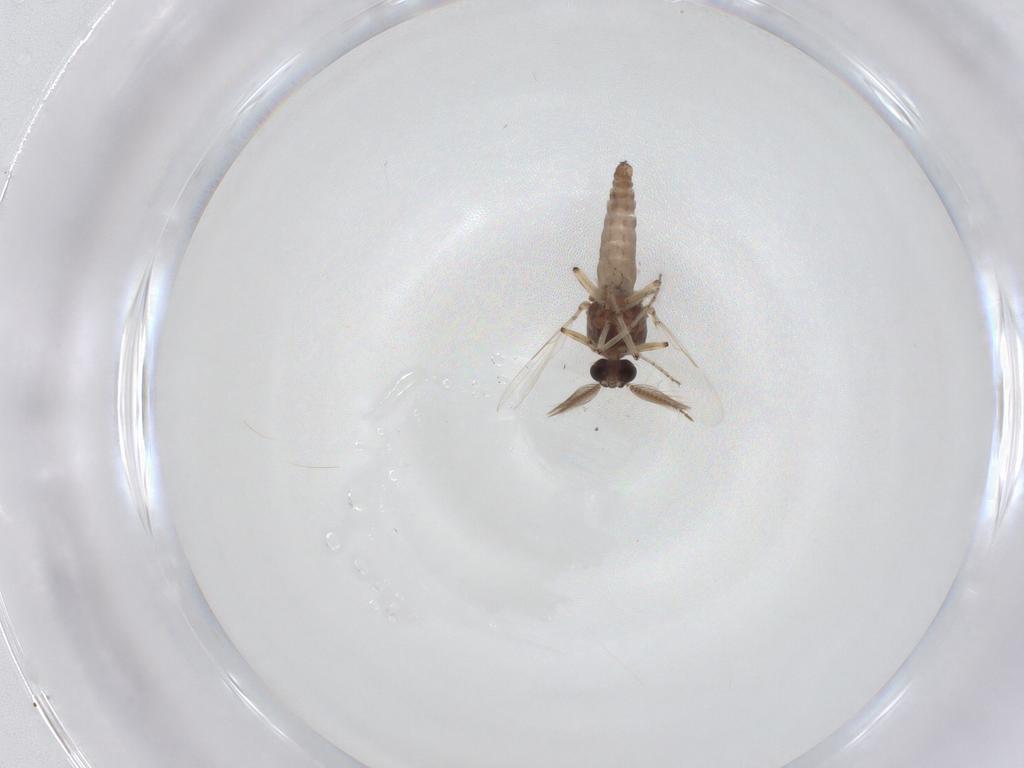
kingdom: Animalia
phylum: Arthropoda
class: Insecta
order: Diptera
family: Ceratopogonidae
